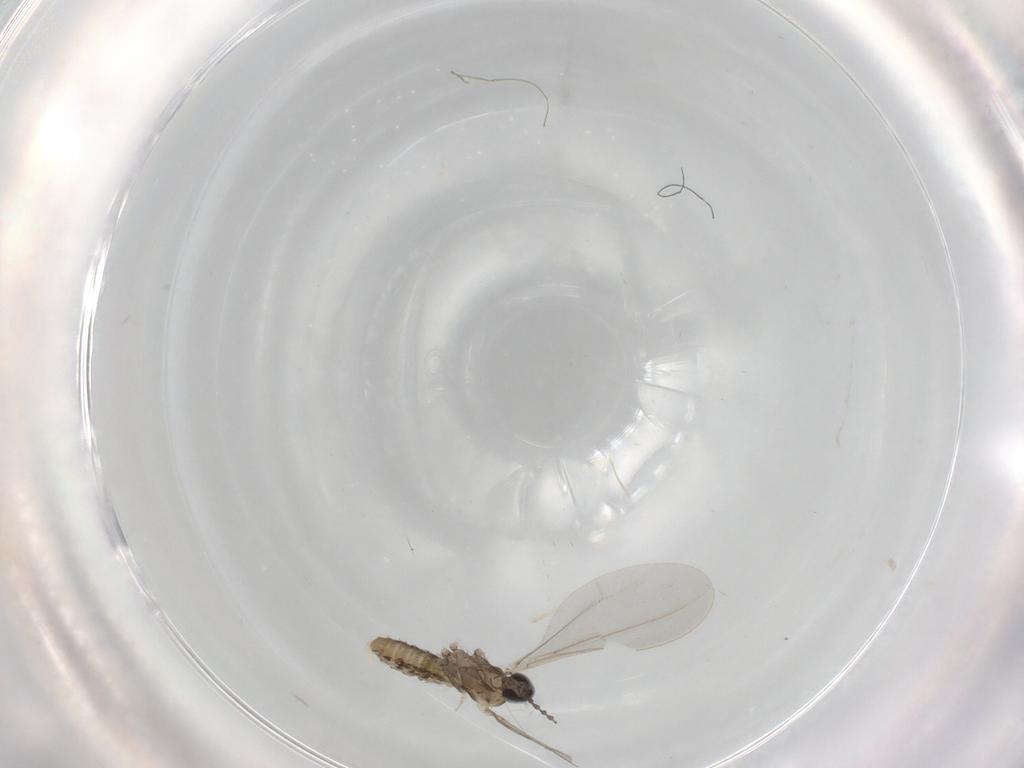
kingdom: Animalia
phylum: Arthropoda
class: Insecta
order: Diptera
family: Cecidomyiidae
